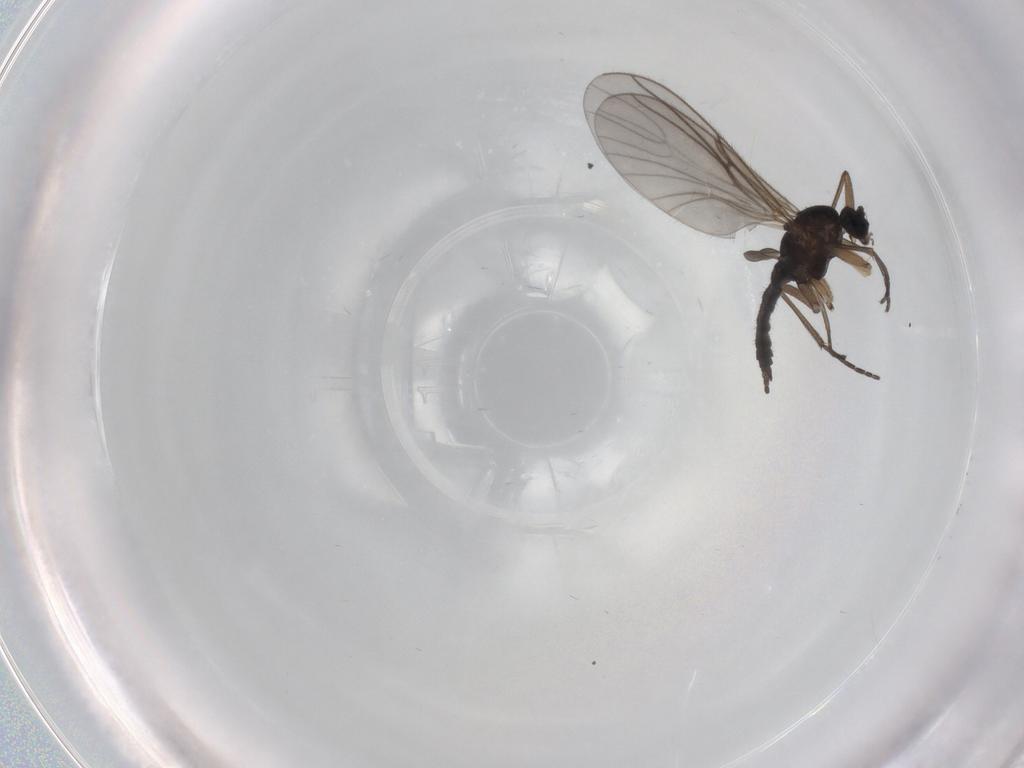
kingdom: Animalia
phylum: Arthropoda
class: Insecta
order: Diptera
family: Sciaridae
